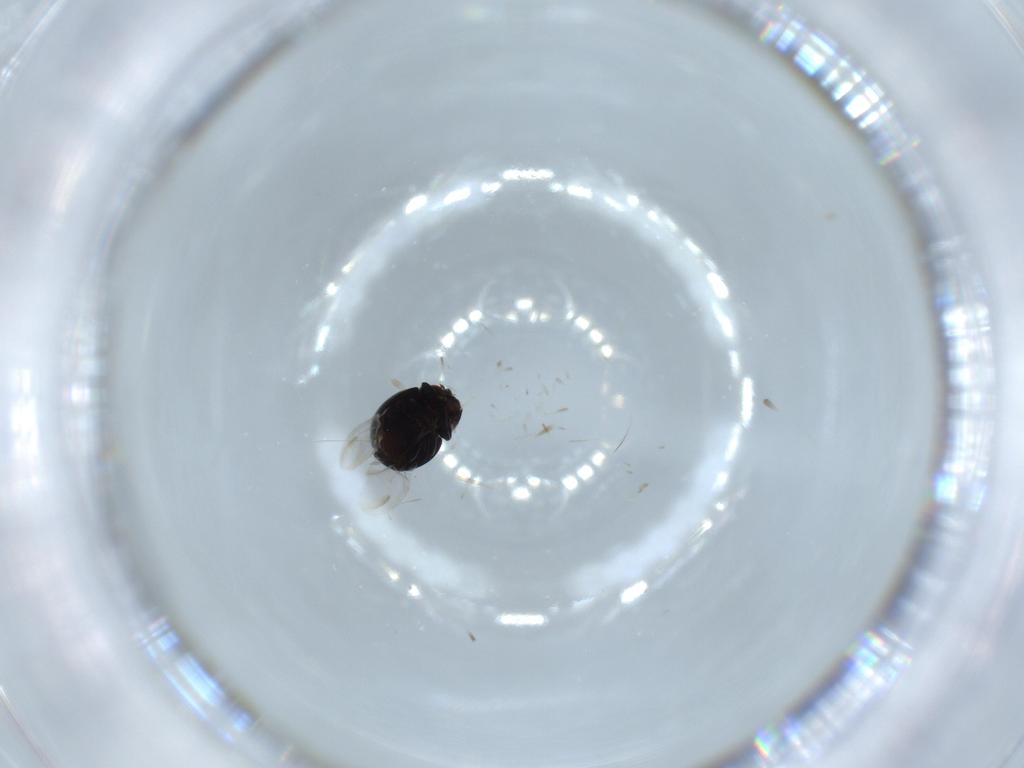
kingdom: Animalia
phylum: Arthropoda
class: Insecta
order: Coleoptera
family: Coccinellidae
